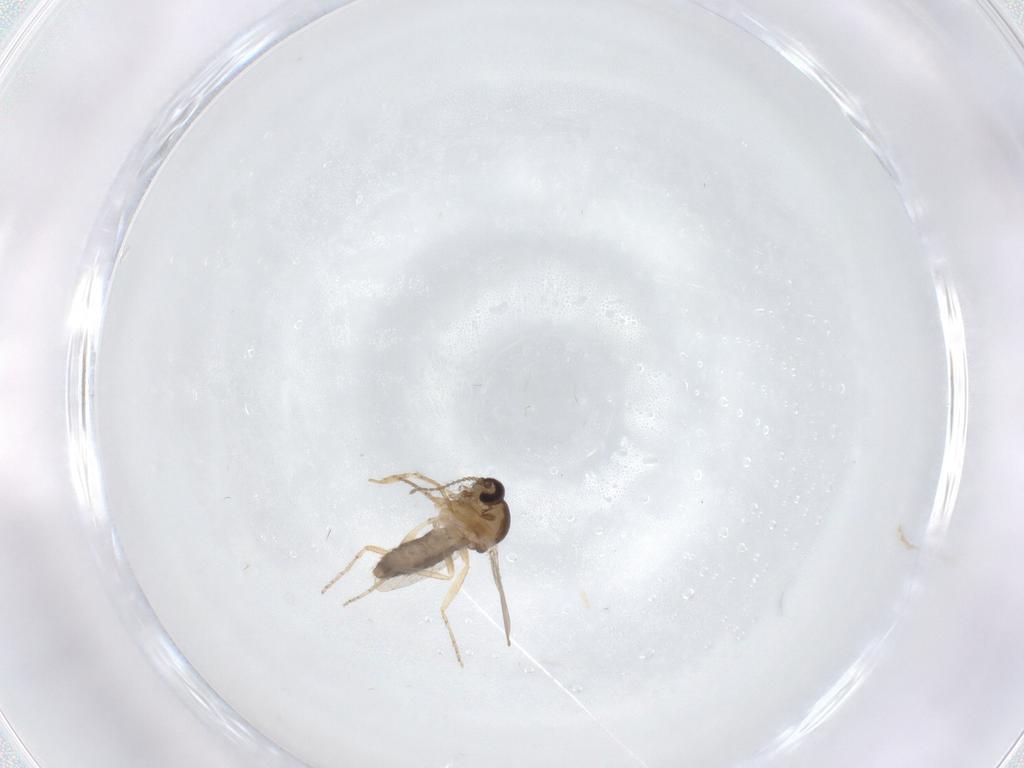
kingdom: Animalia
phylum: Arthropoda
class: Insecta
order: Diptera
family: Ceratopogonidae
